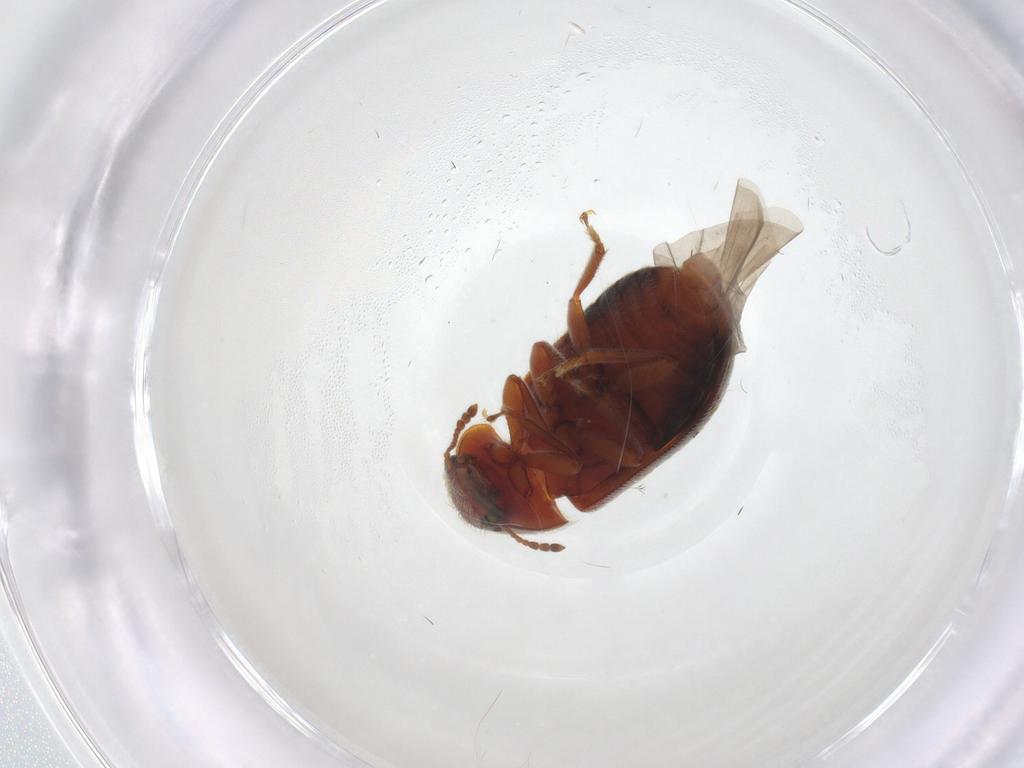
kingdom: Animalia
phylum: Arthropoda
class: Insecta
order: Coleoptera
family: Byturidae
